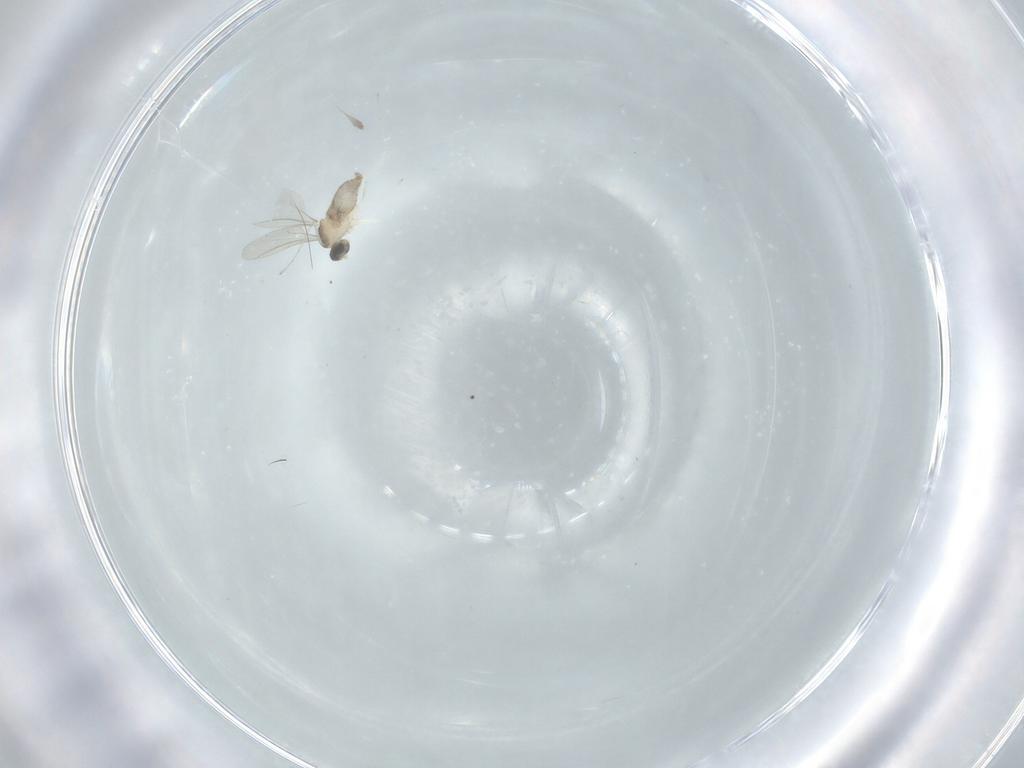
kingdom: Animalia
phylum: Arthropoda
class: Insecta
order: Diptera
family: Cecidomyiidae
